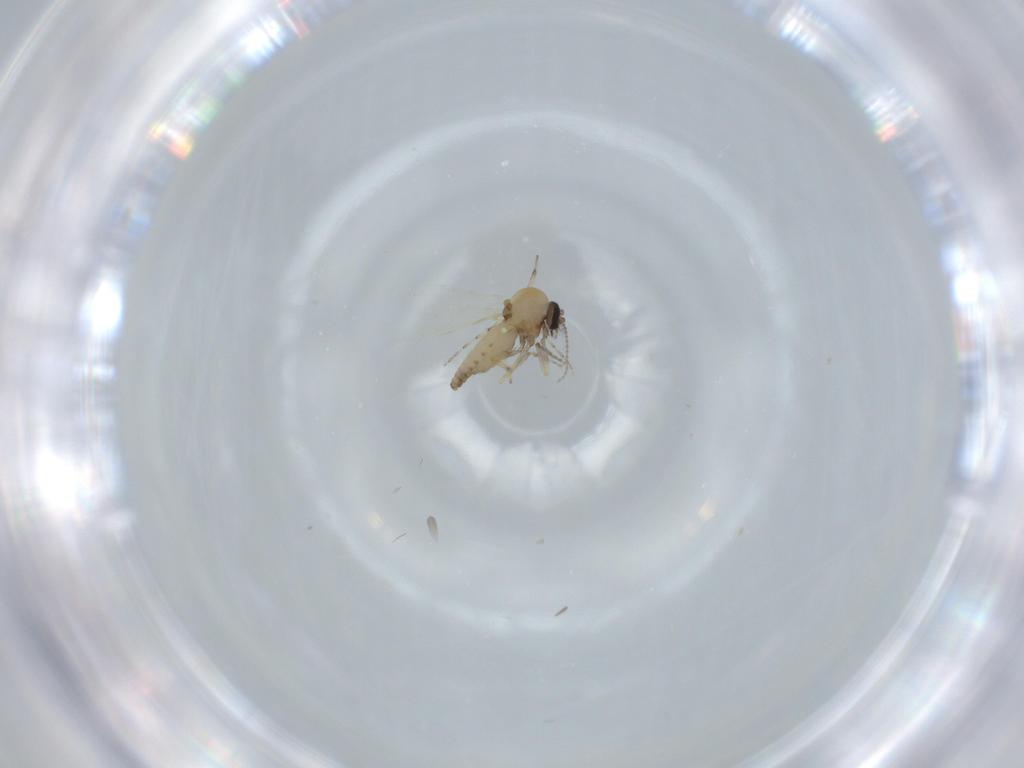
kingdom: Animalia
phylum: Arthropoda
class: Insecta
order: Diptera
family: Ceratopogonidae
